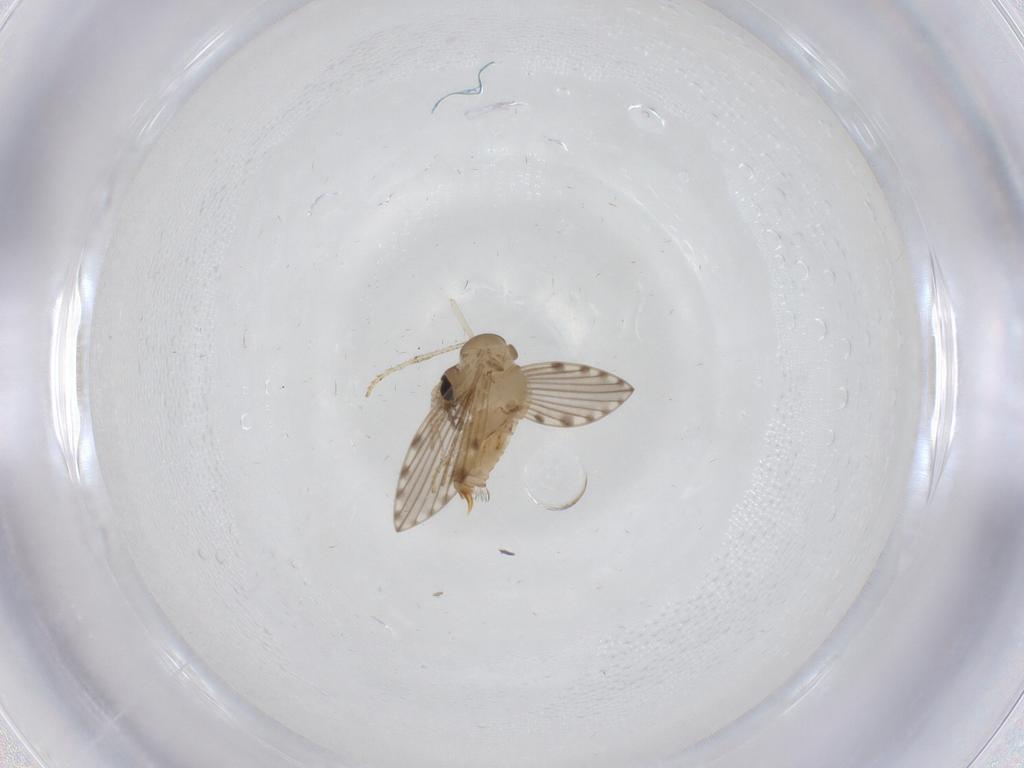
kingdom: Animalia
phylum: Arthropoda
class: Insecta
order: Diptera
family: Psychodidae
